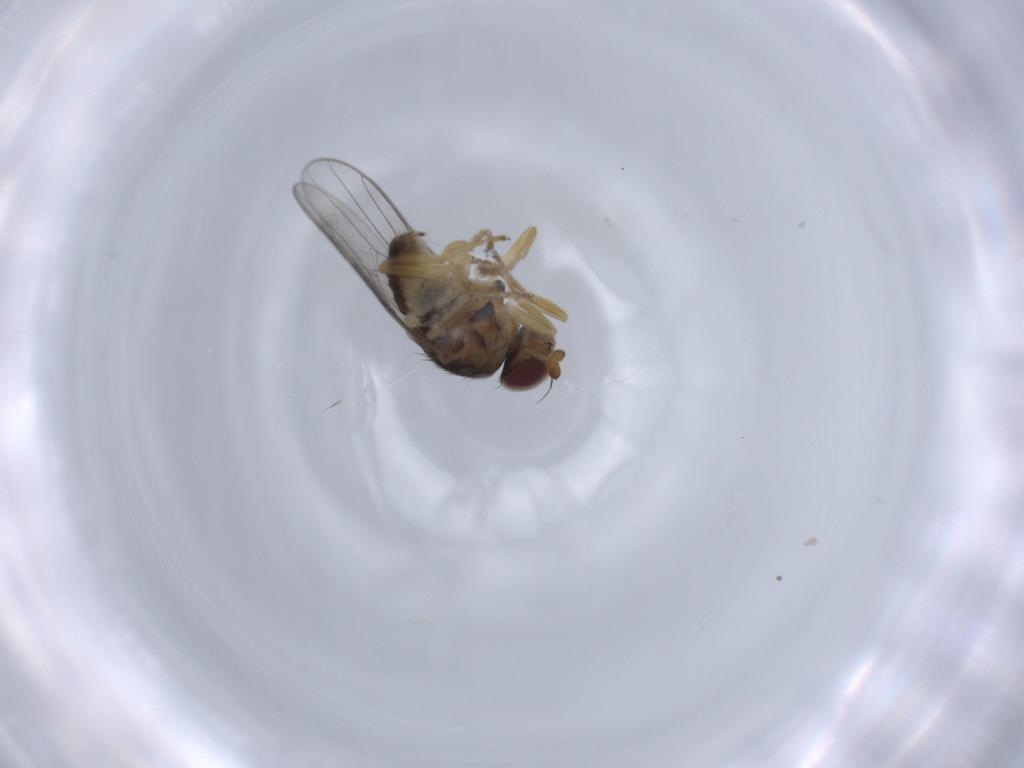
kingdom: Animalia
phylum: Arthropoda
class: Insecta
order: Diptera
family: Chloropidae
